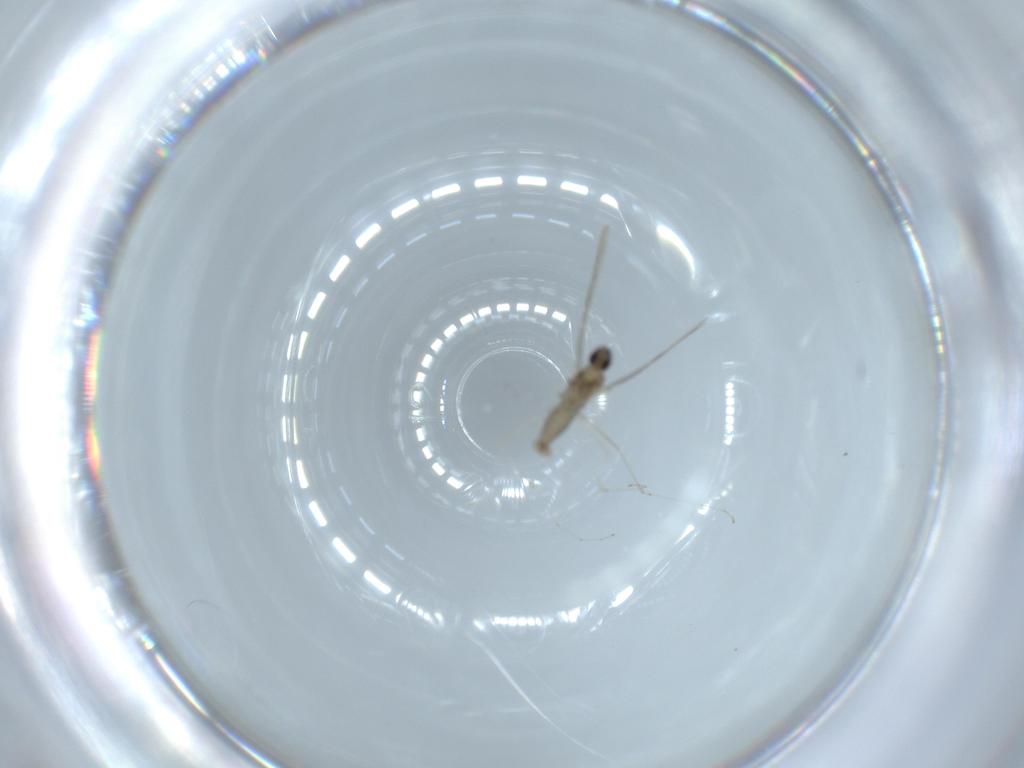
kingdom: Animalia
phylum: Arthropoda
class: Insecta
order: Diptera
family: Cecidomyiidae
